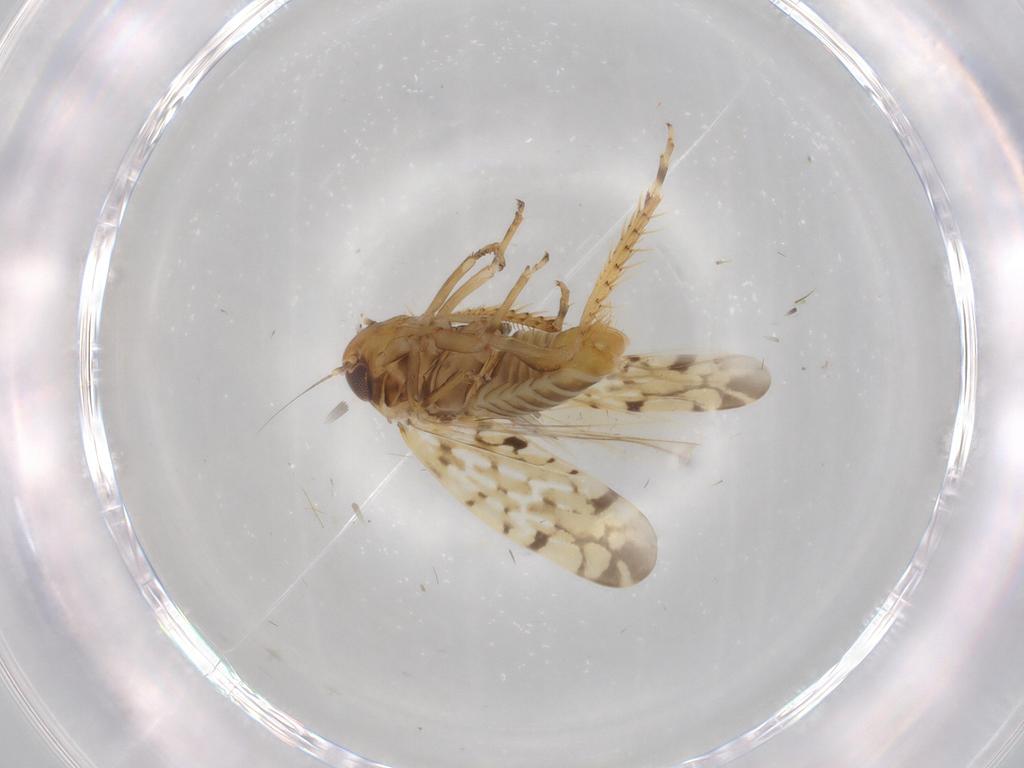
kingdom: Animalia
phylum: Arthropoda
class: Insecta
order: Hemiptera
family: Cicadellidae
